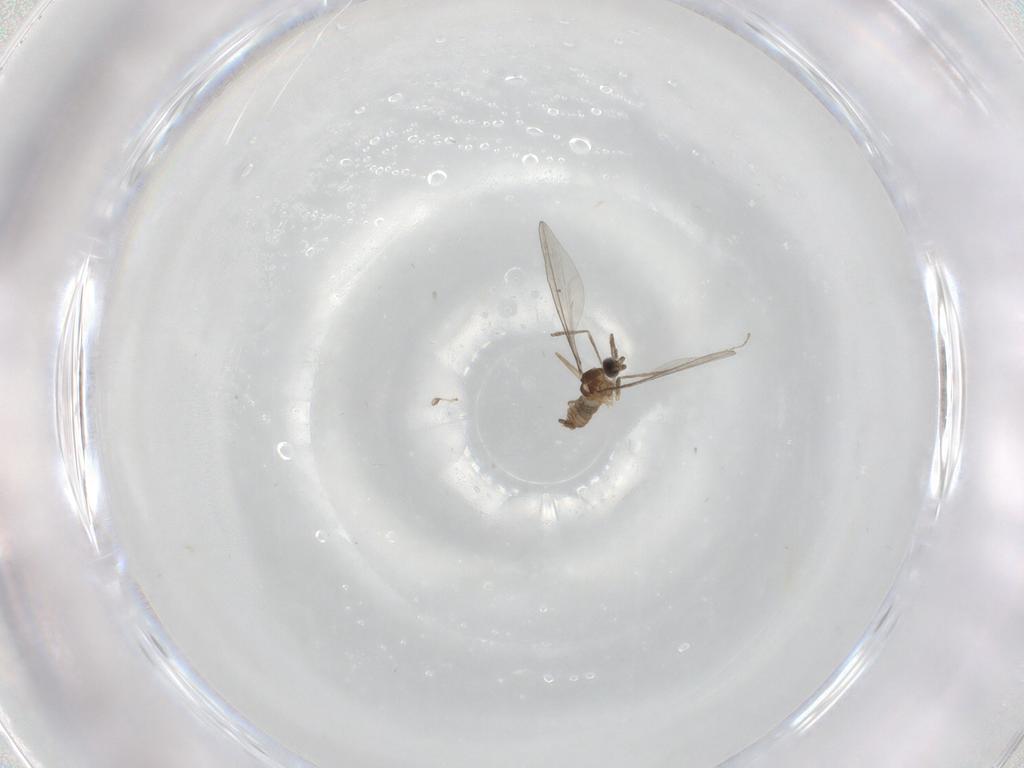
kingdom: Animalia
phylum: Arthropoda
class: Insecta
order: Diptera
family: Cecidomyiidae
